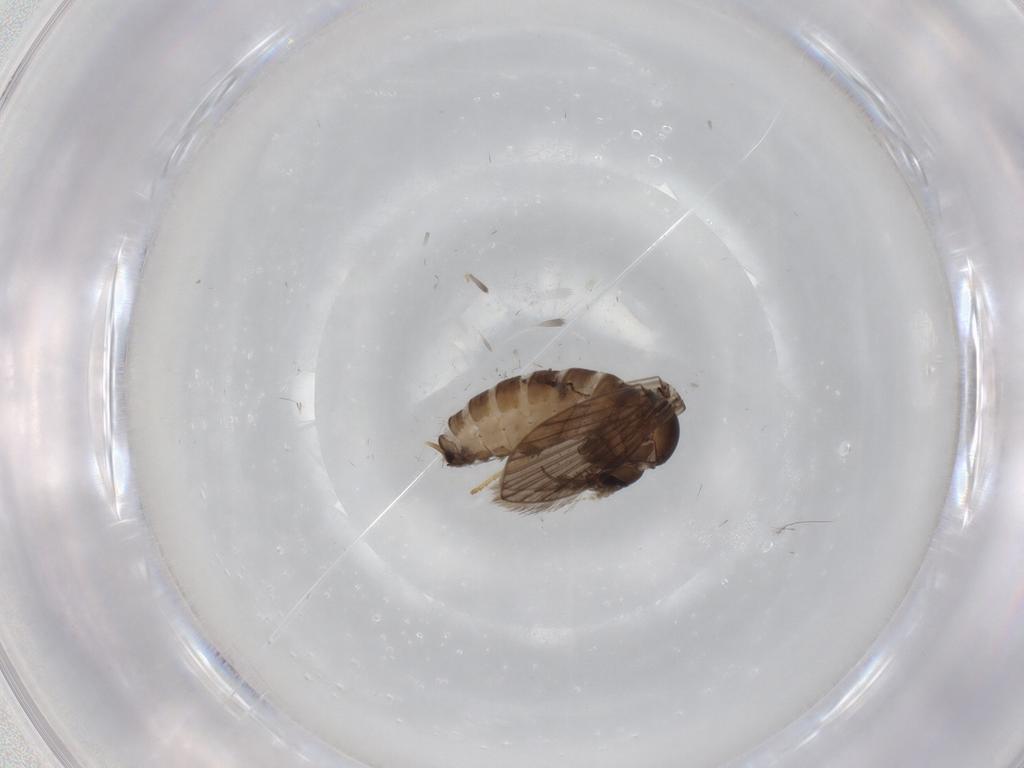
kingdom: Animalia
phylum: Arthropoda
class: Insecta
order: Diptera
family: Psychodidae
